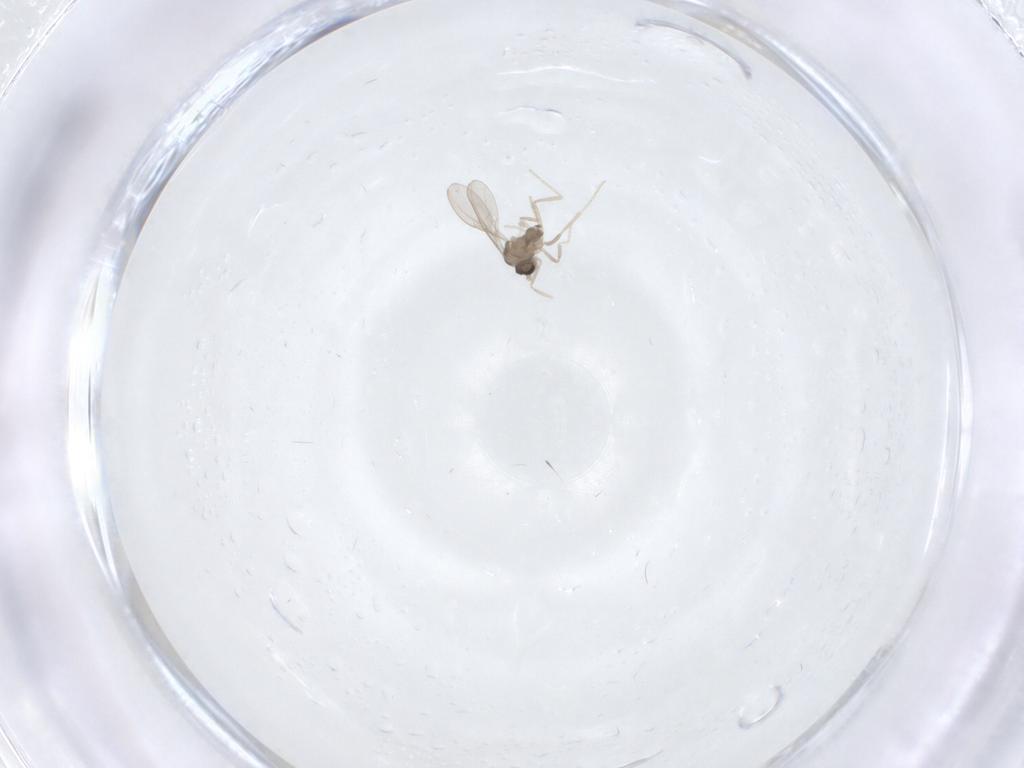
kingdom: Animalia
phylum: Arthropoda
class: Insecta
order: Diptera
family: Cecidomyiidae
